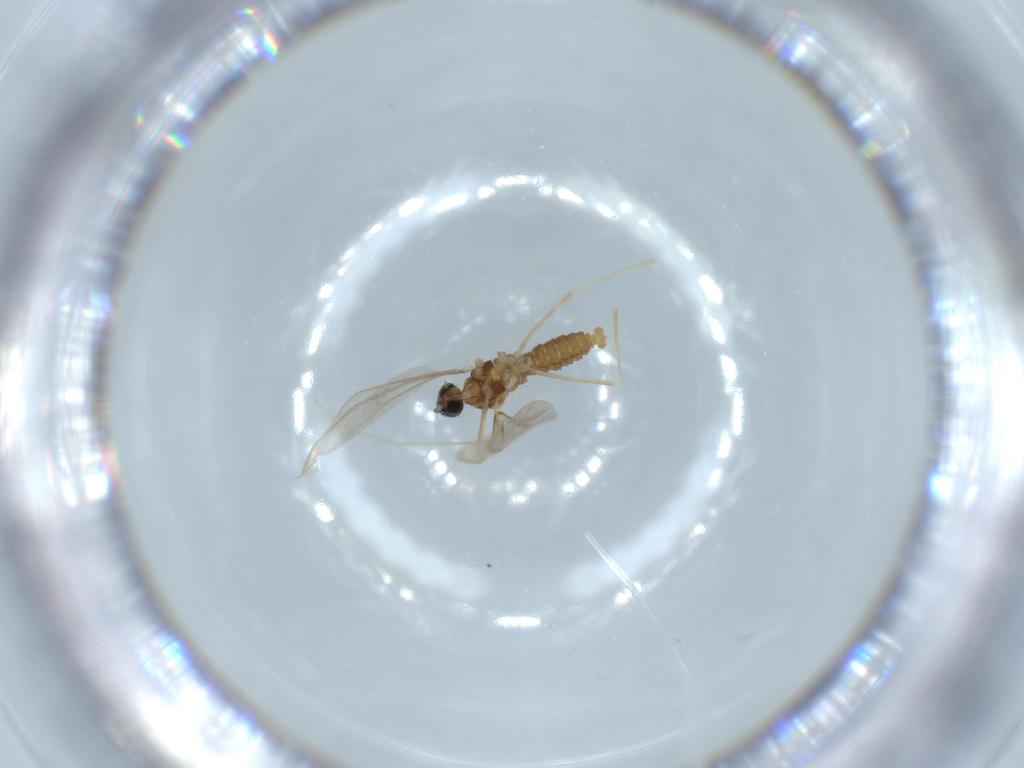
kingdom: Animalia
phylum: Arthropoda
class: Insecta
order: Diptera
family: Cecidomyiidae
